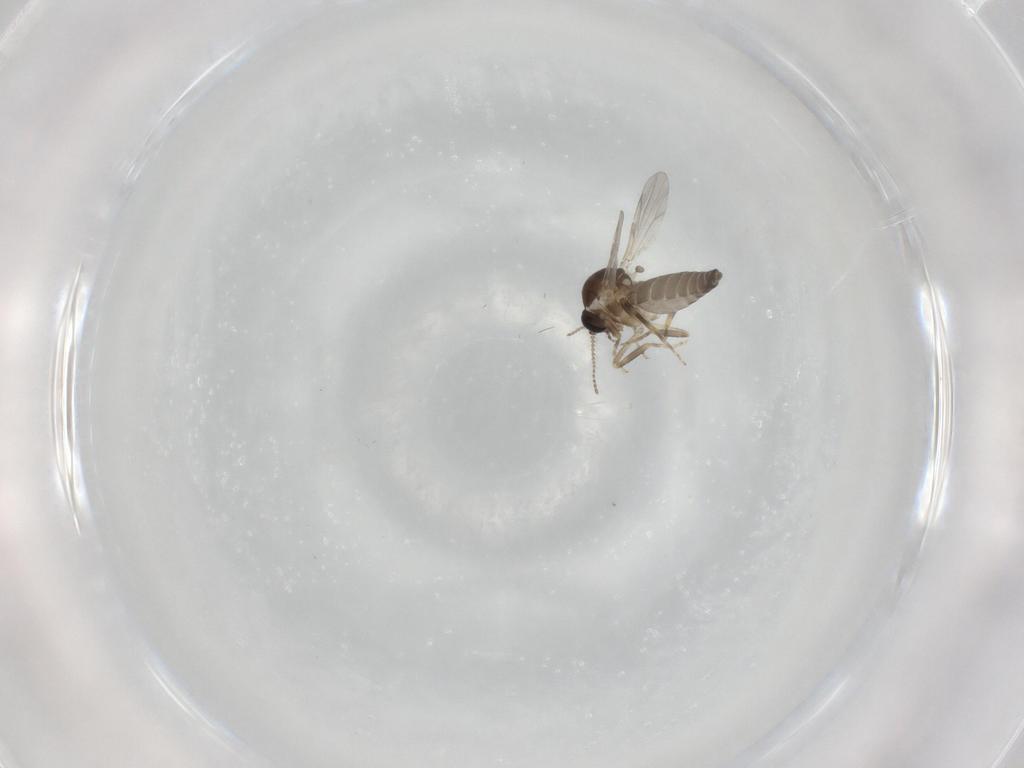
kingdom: Animalia
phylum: Arthropoda
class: Insecta
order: Diptera
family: Ceratopogonidae
